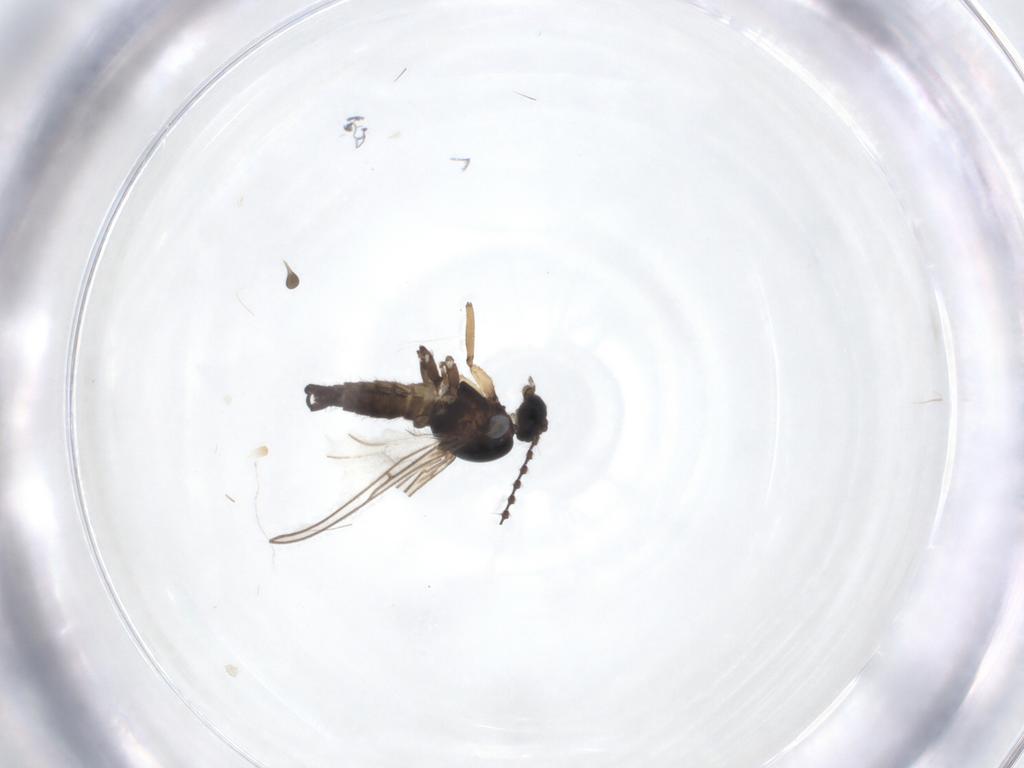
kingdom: Animalia
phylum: Arthropoda
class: Insecta
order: Diptera
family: Sciaridae
